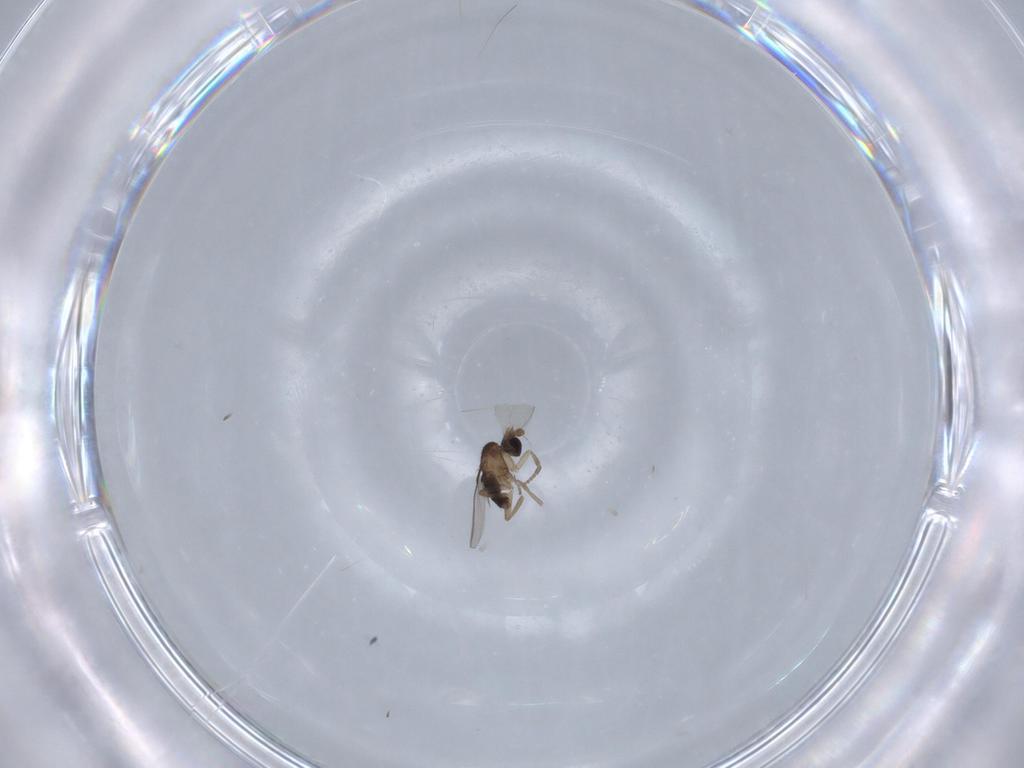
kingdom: Animalia
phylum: Arthropoda
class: Insecta
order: Diptera
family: Phoridae
